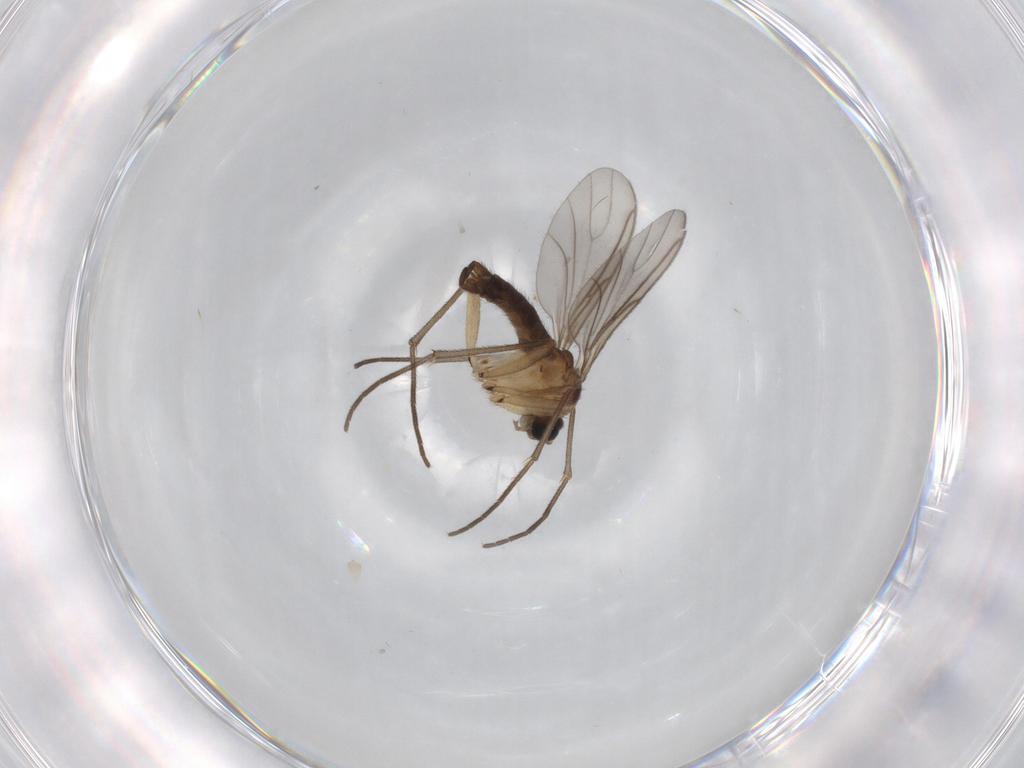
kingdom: Animalia
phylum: Arthropoda
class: Insecta
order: Diptera
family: Sciaridae
